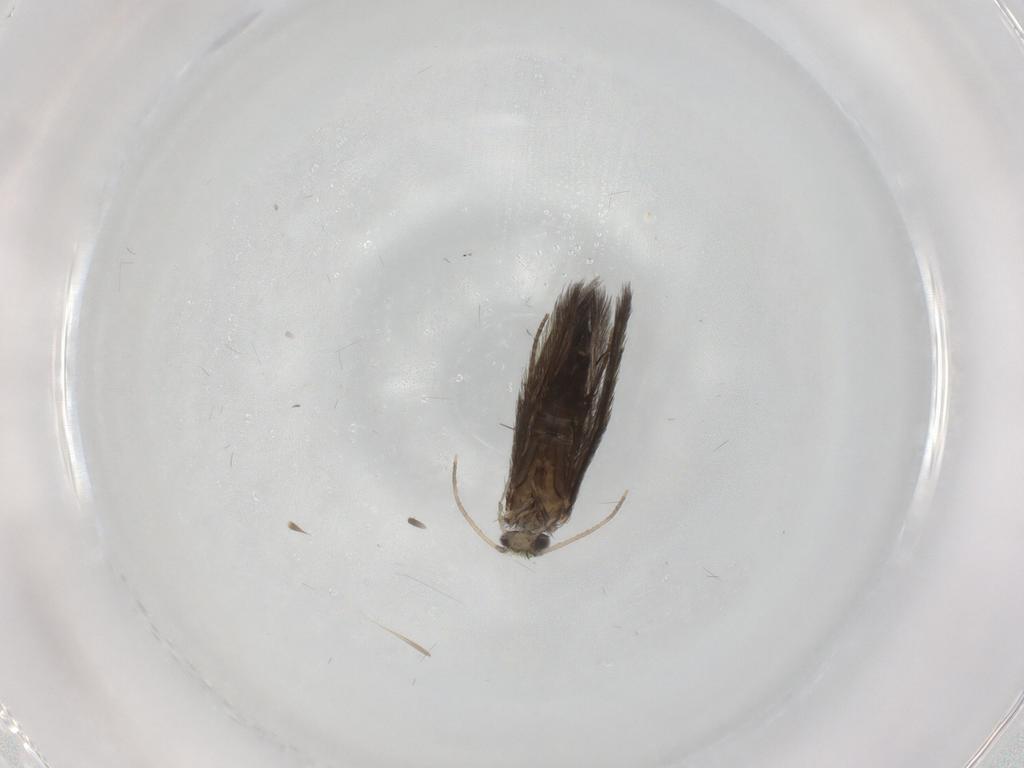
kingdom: Animalia
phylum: Arthropoda
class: Insecta
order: Trichoptera
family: Hydroptilidae
